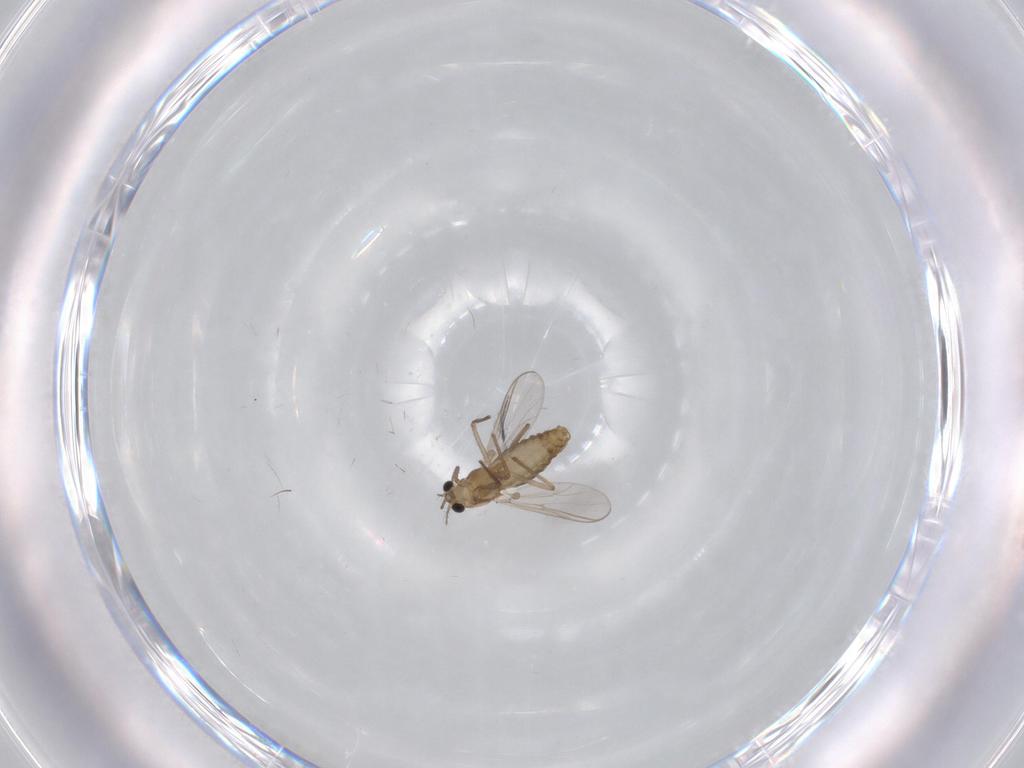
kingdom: Animalia
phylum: Arthropoda
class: Insecta
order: Diptera
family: Chironomidae
